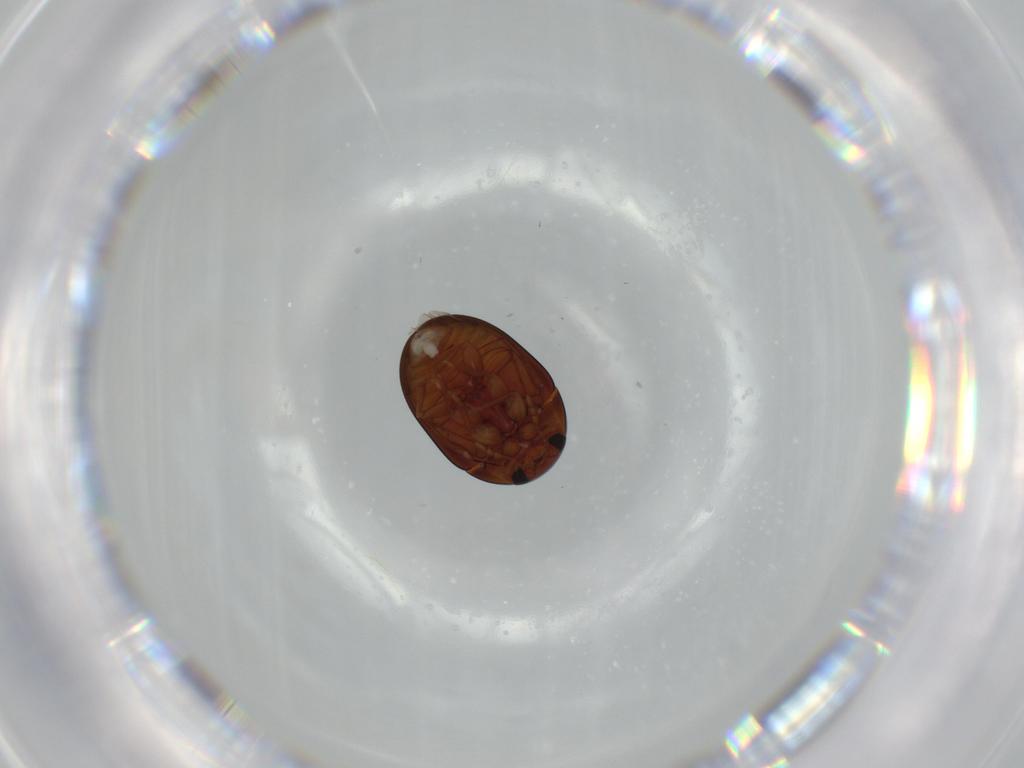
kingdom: Animalia
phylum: Arthropoda
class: Insecta
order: Coleoptera
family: Phalacridae
